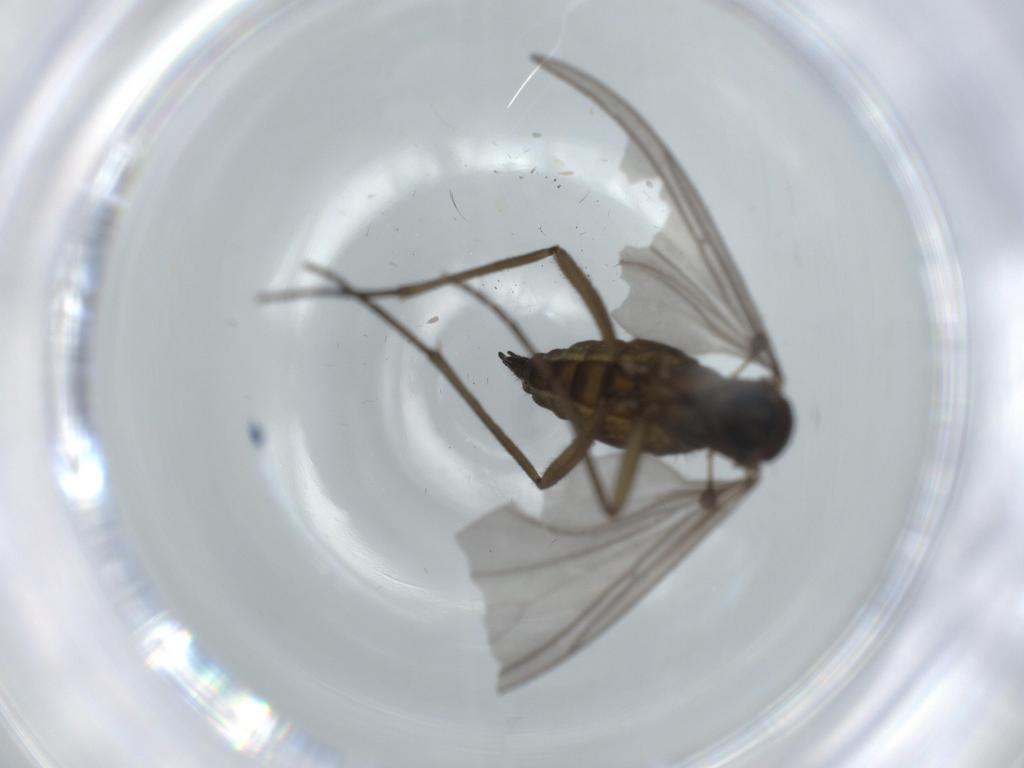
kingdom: Animalia
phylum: Arthropoda
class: Insecta
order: Diptera
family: Sciaridae
